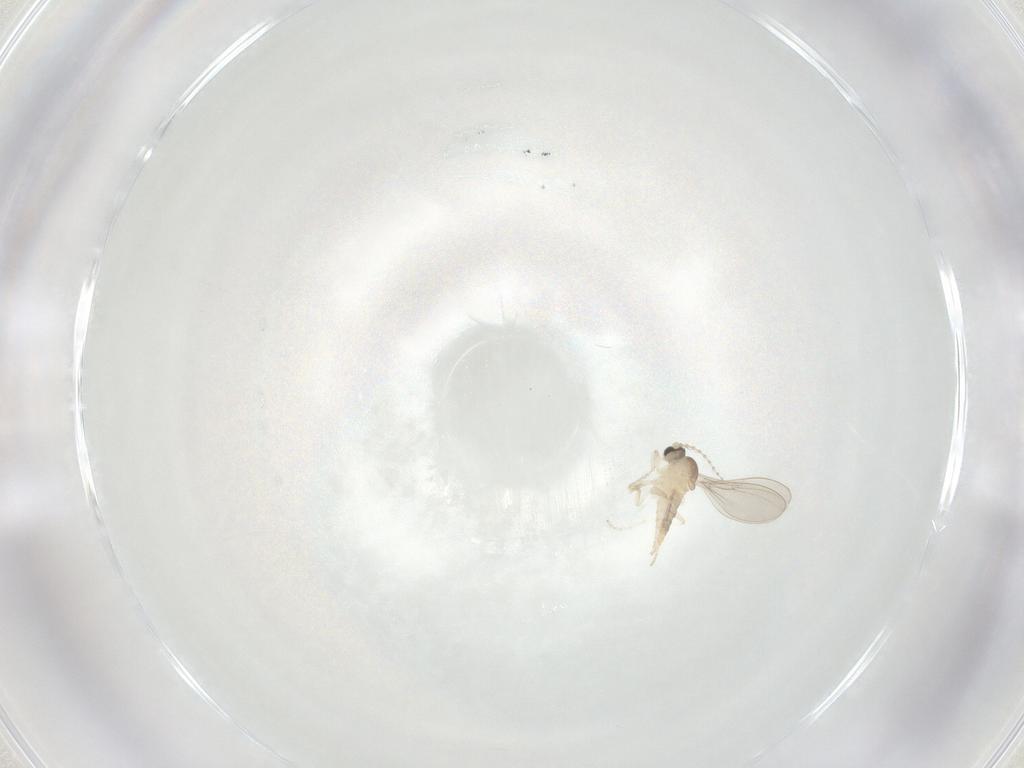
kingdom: Animalia
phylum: Arthropoda
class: Insecta
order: Diptera
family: Cecidomyiidae
